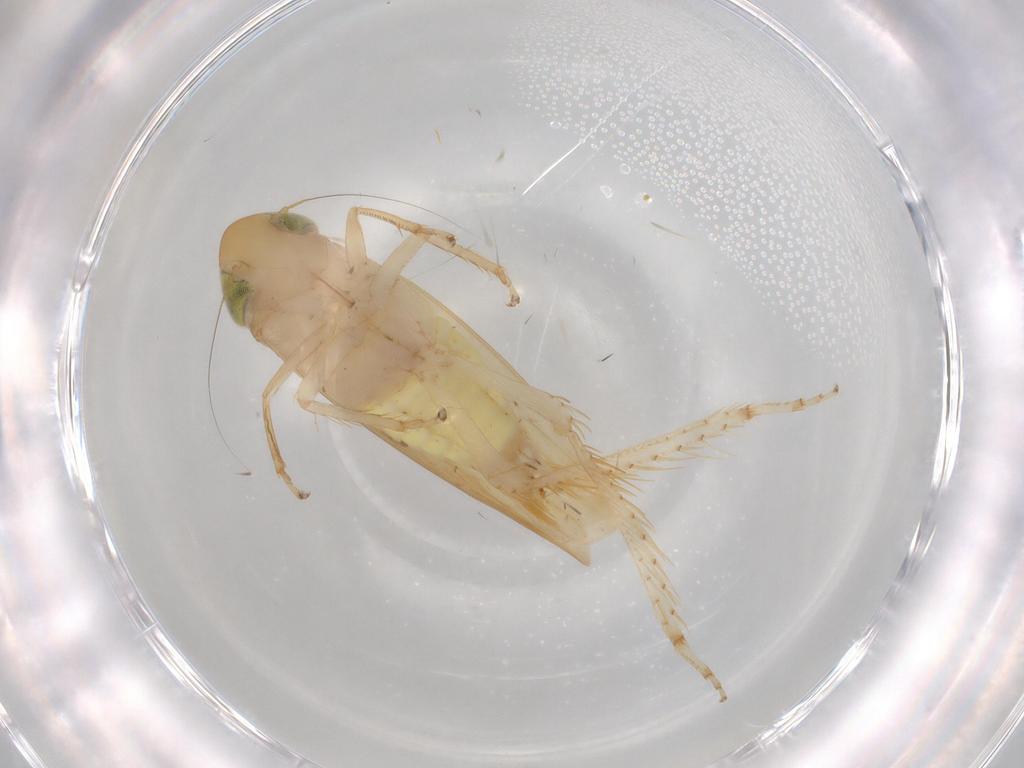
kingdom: Animalia
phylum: Arthropoda
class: Insecta
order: Hemiptera
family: Cicadellidae
